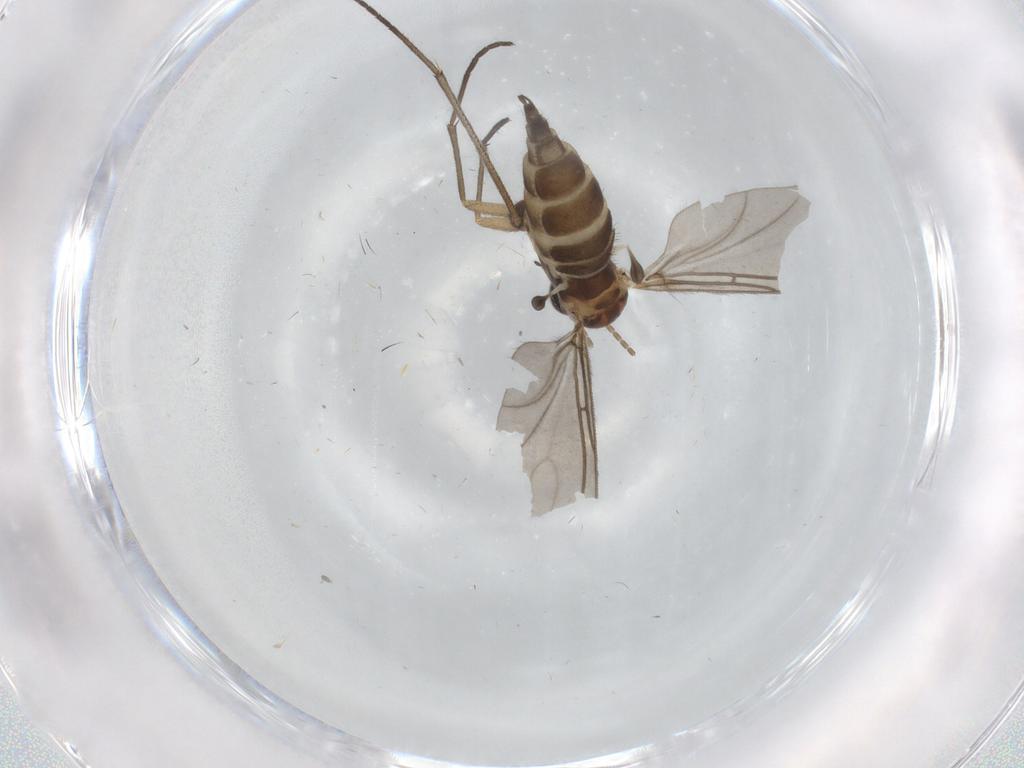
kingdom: Animalia
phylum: Arthropoda
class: Insecta
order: Diptera
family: Sciaridae
